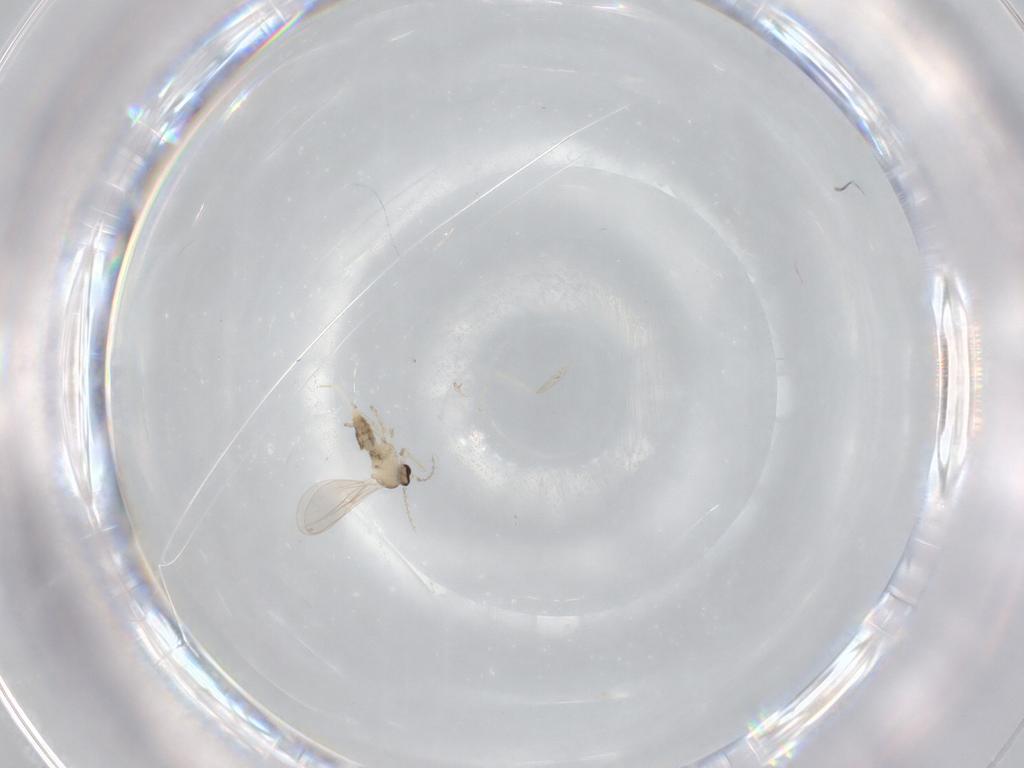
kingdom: Animalia
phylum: Arthropoda
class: Insecta
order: Diptera
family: Cecidomyiidae
